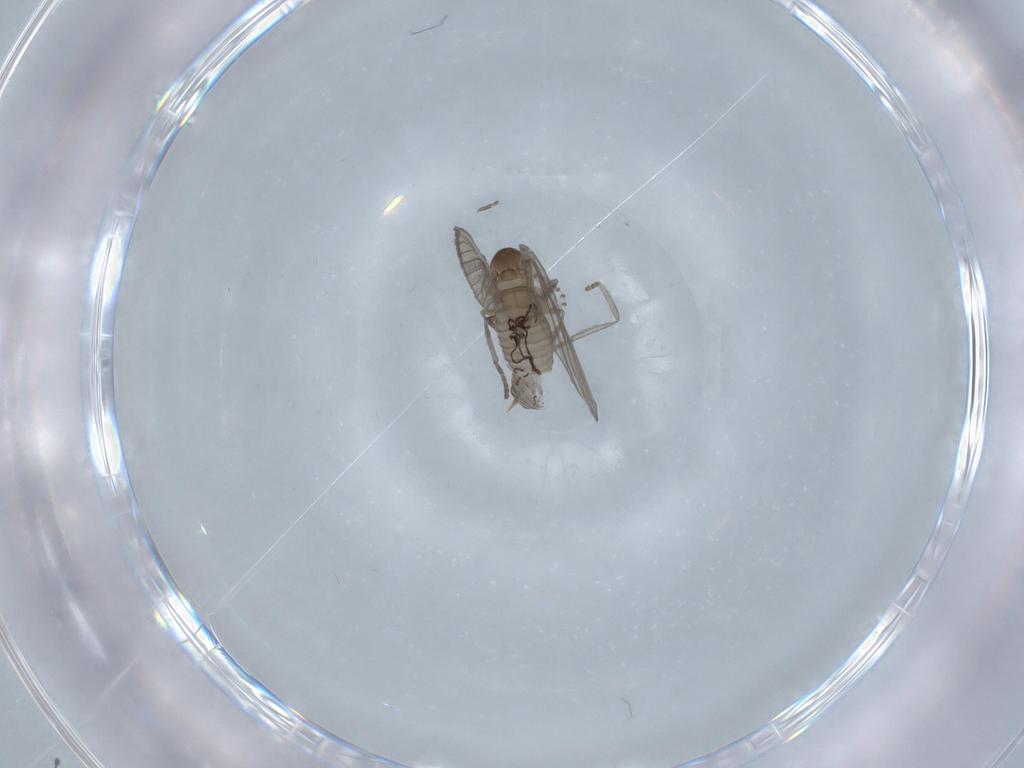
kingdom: Animalia
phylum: Arthropoda
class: Insecta
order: Diptera
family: Psychodidae
